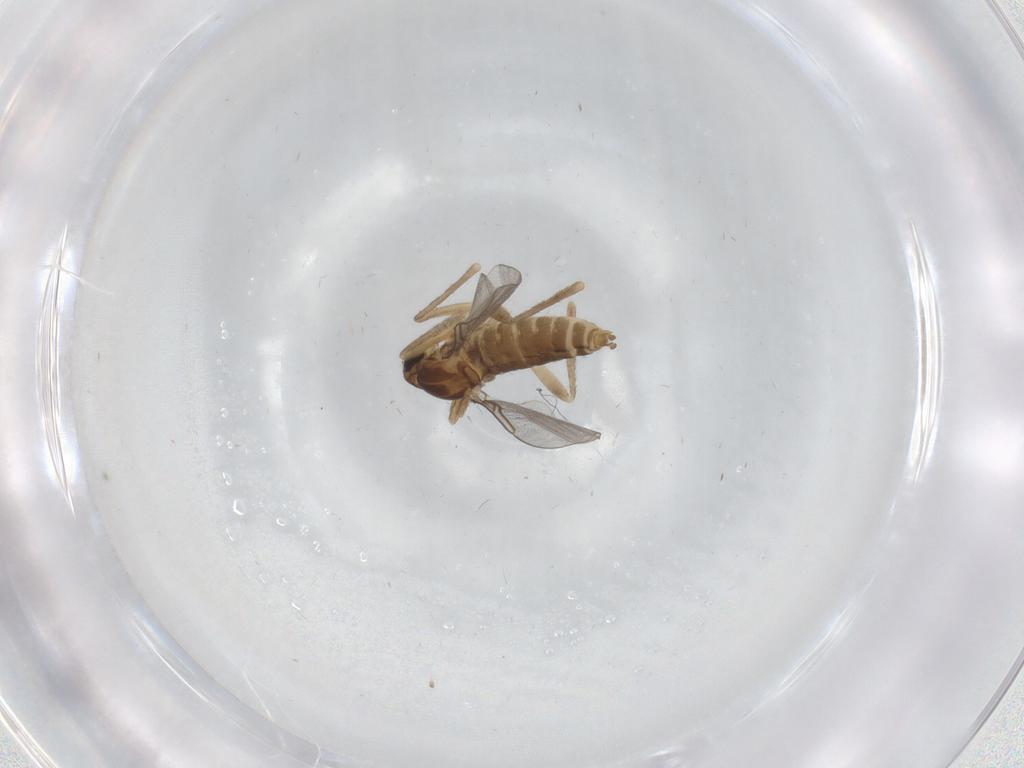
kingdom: Animalia
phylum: Arthropoda
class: Insecta
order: Diptera
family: Cecidomyiidae
